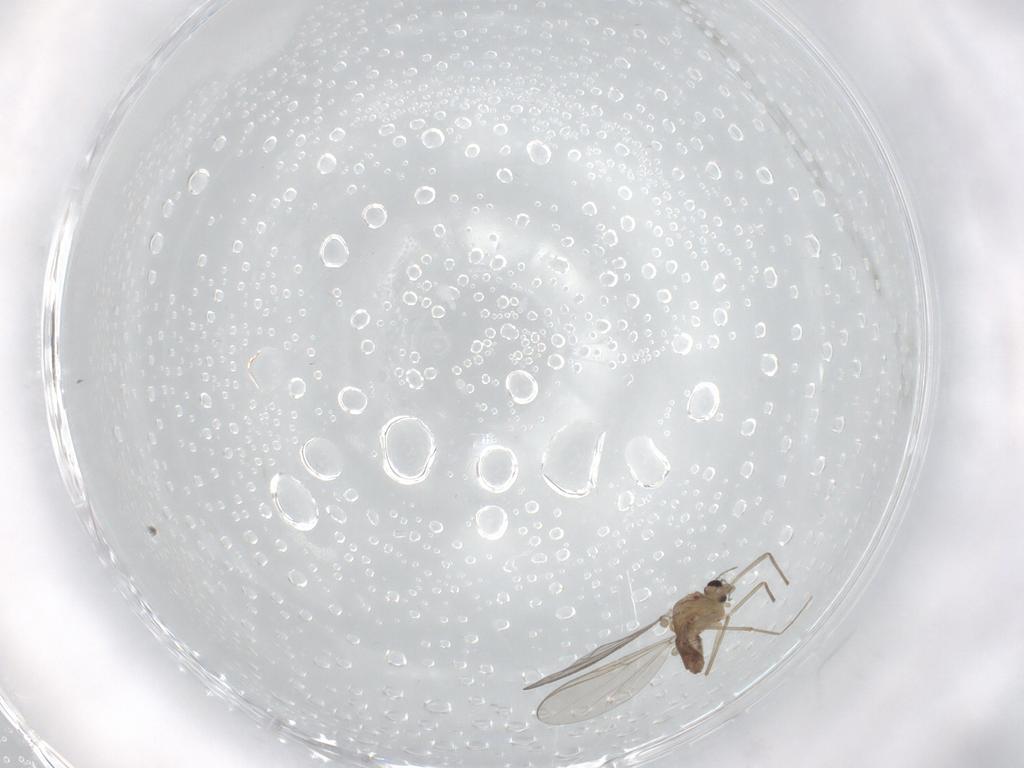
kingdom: Animalia
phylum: Arthropoda
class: Insecta
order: Diptera
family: Chironomidae
